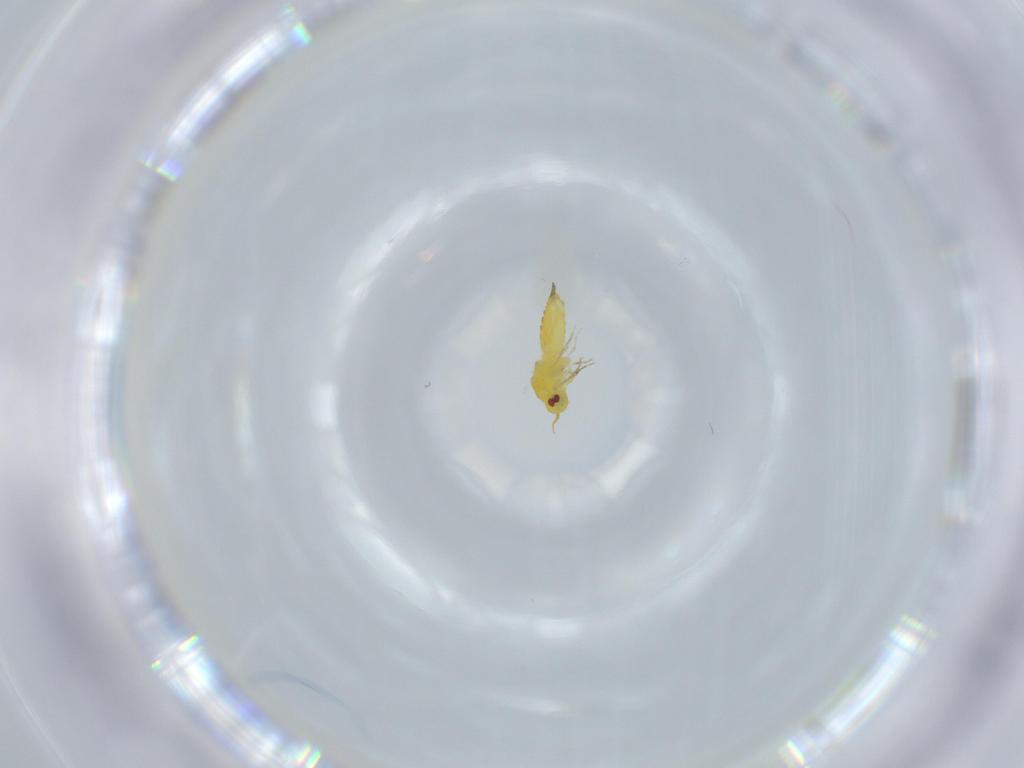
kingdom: Animalia
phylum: Arthropoda
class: Insecta
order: Hemiptera
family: Aleyrodidae
